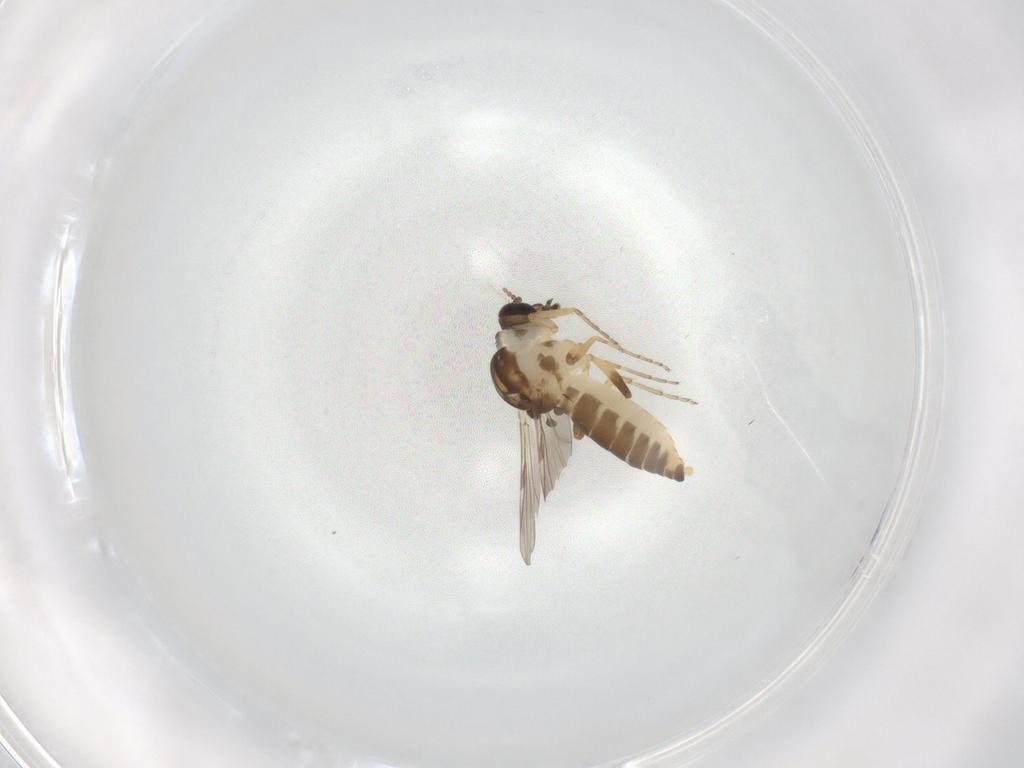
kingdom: Animalia
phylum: Arthropoda
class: Insecta
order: Diptera
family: Ceratopogonidae
